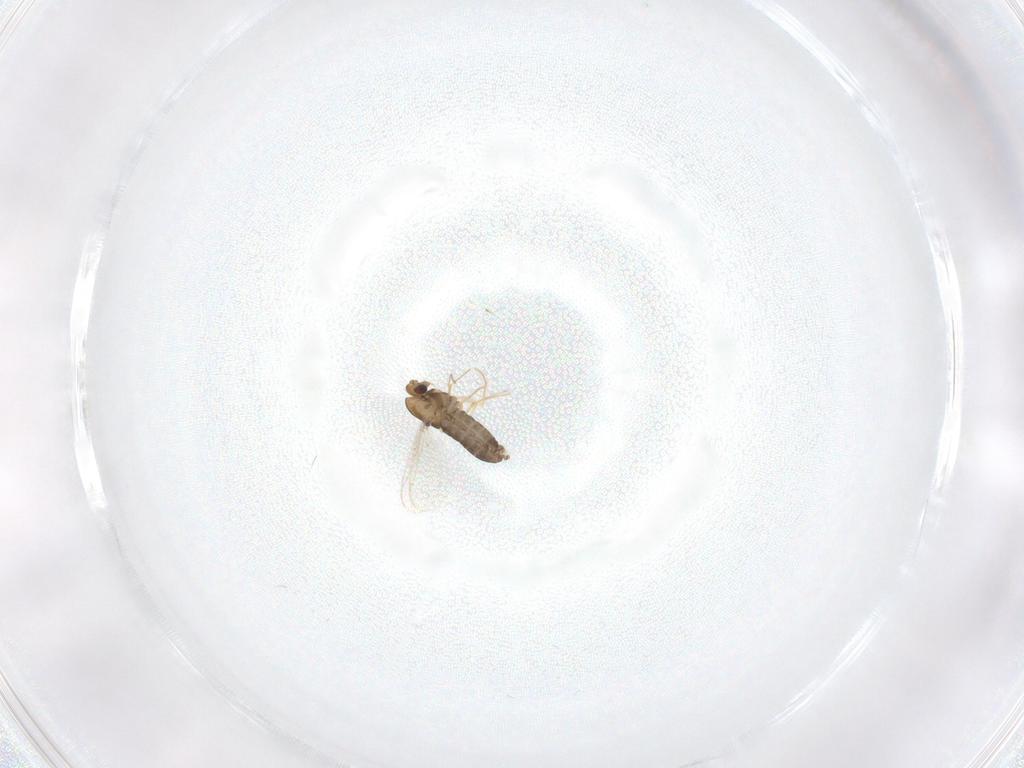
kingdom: Animalia
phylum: Arthropoda
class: Insecta
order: Diptera
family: Chironomidae
